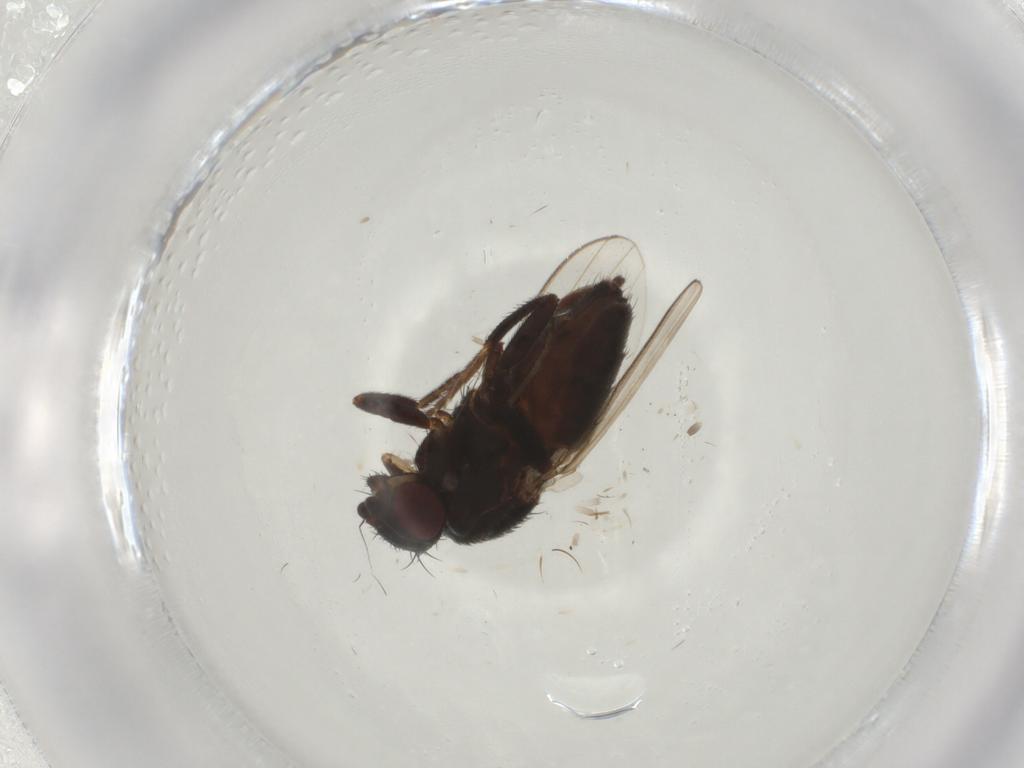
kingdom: Animalia
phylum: Arthropoda
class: Insecta
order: Diptera
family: Milichiidae
